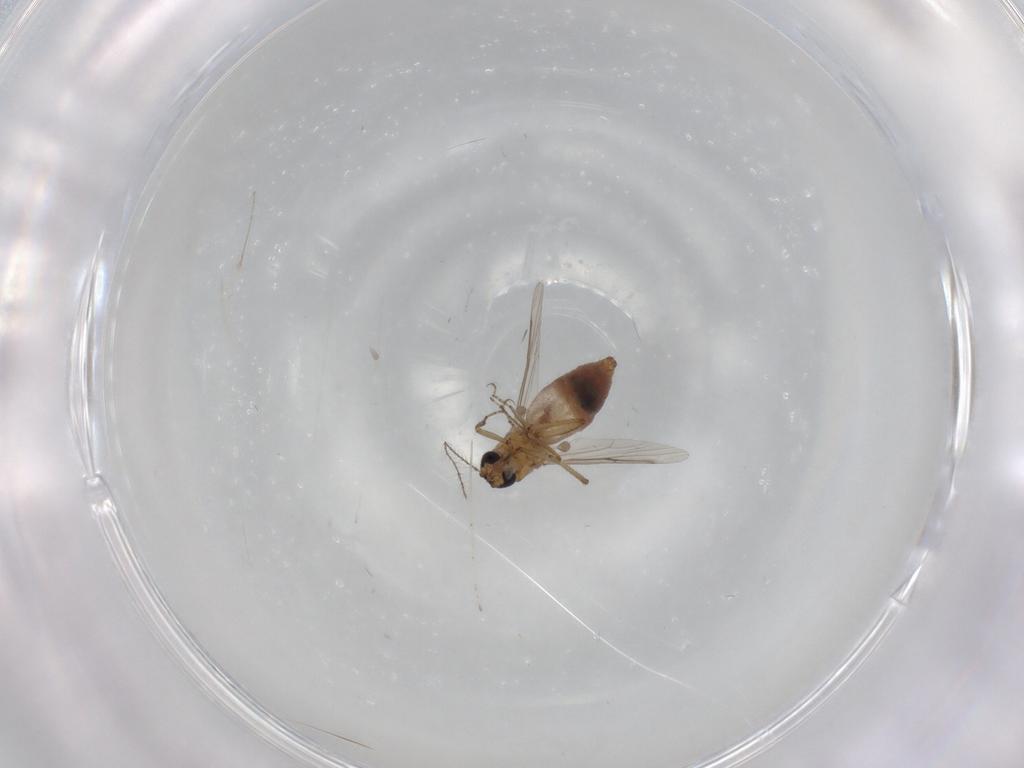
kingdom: Animalia
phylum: Arthropoda
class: Insecta
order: Diptera
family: Ceratopogonidae
